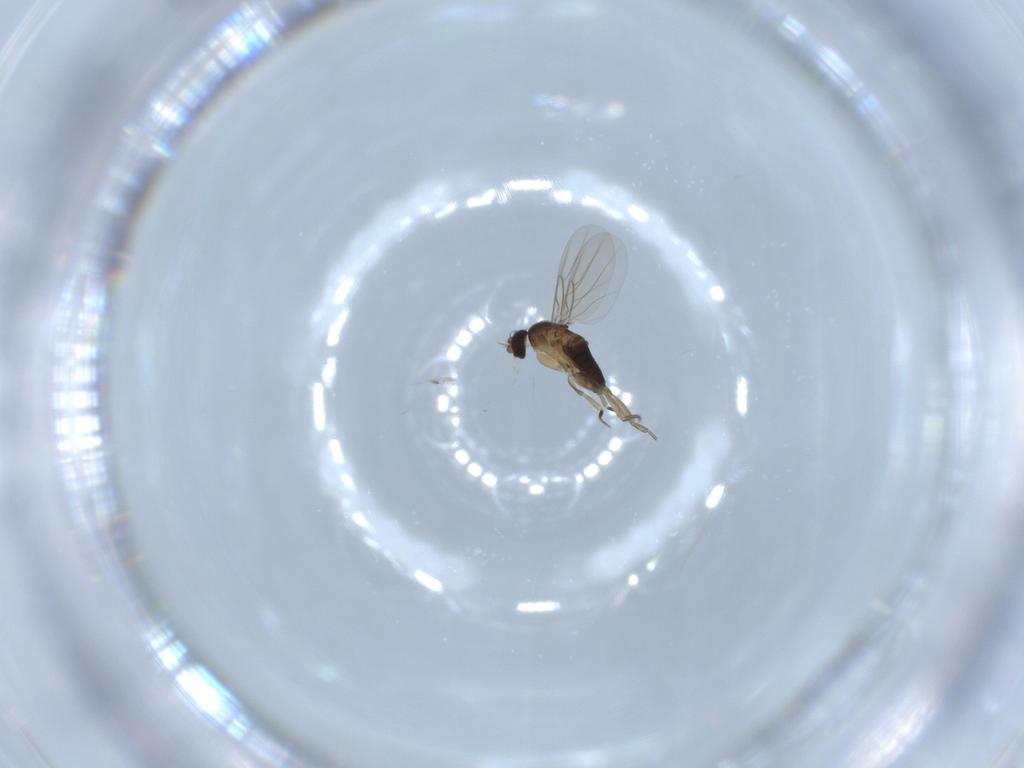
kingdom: Animalia
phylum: Arthropoda
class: Insecta
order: Diptera
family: Phoridae
